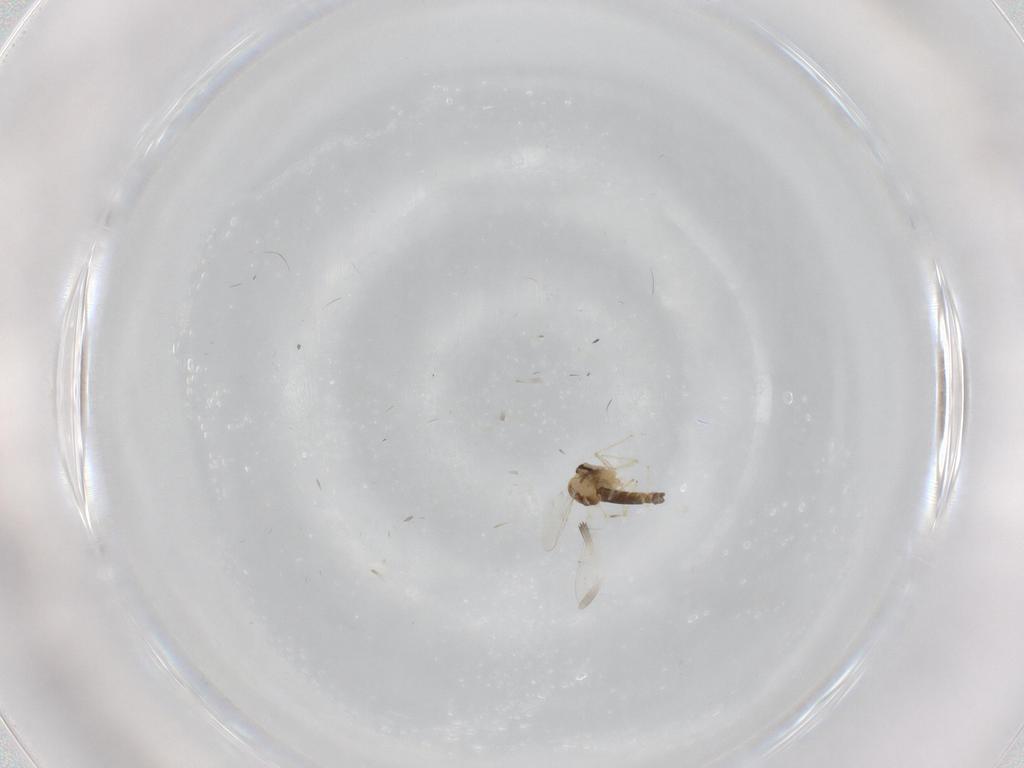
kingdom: Animalia
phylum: Arthropoda
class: Insecta
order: Diptera
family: Chironomidae
